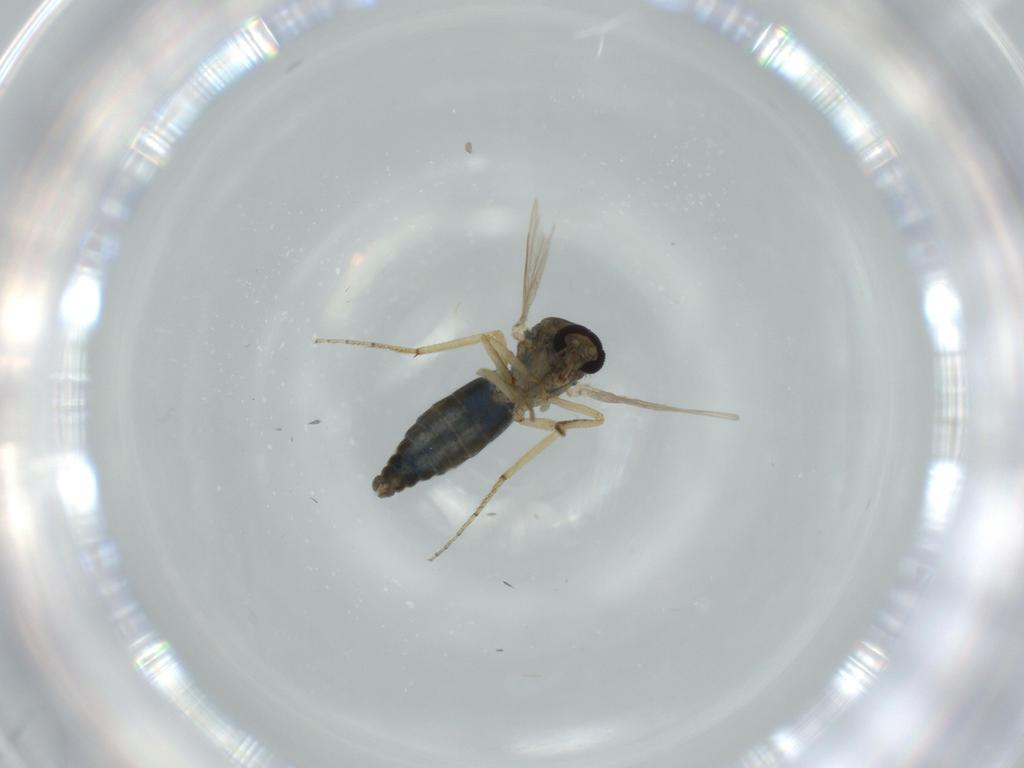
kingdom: Animalia
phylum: Arthropoda
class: Insecta
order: Diptera
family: Ceratopogonidae
